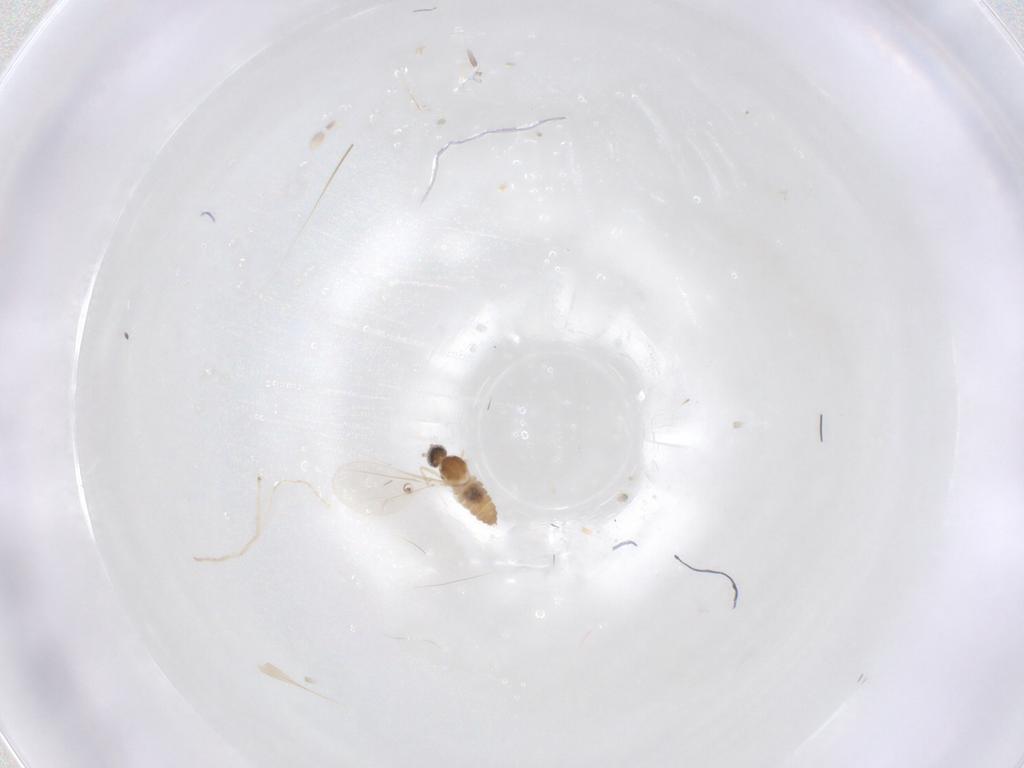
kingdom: Animalia
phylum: Arthropoda
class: Insecta
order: Diptera
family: Cecidomyiidae
